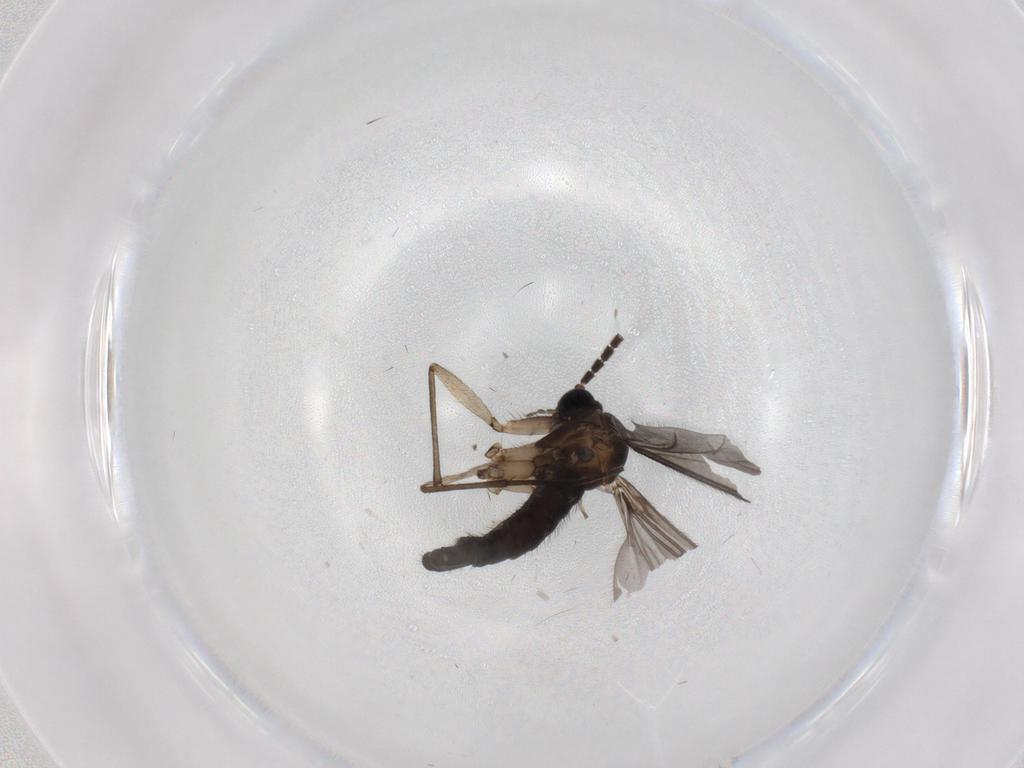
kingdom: Animalia
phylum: Arthropoda
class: Insecta
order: Diptera
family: Sciaridae
